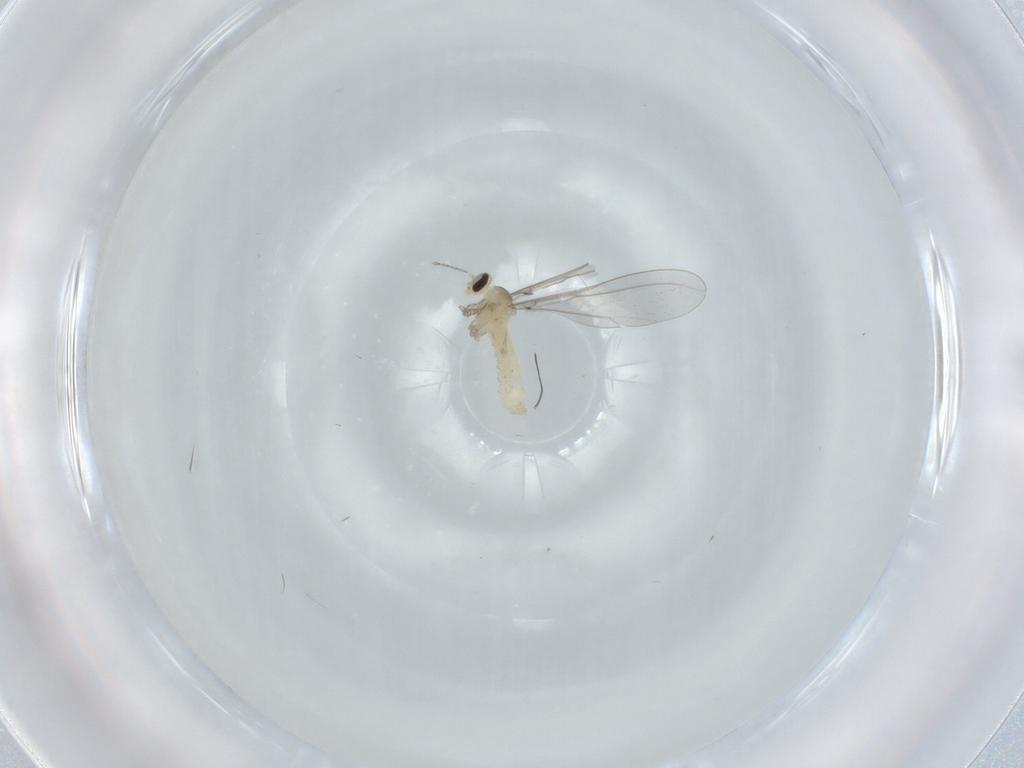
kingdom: Animalia
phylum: Arthropoda
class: Insecta
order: Diptera
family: Cecidomyiidae
